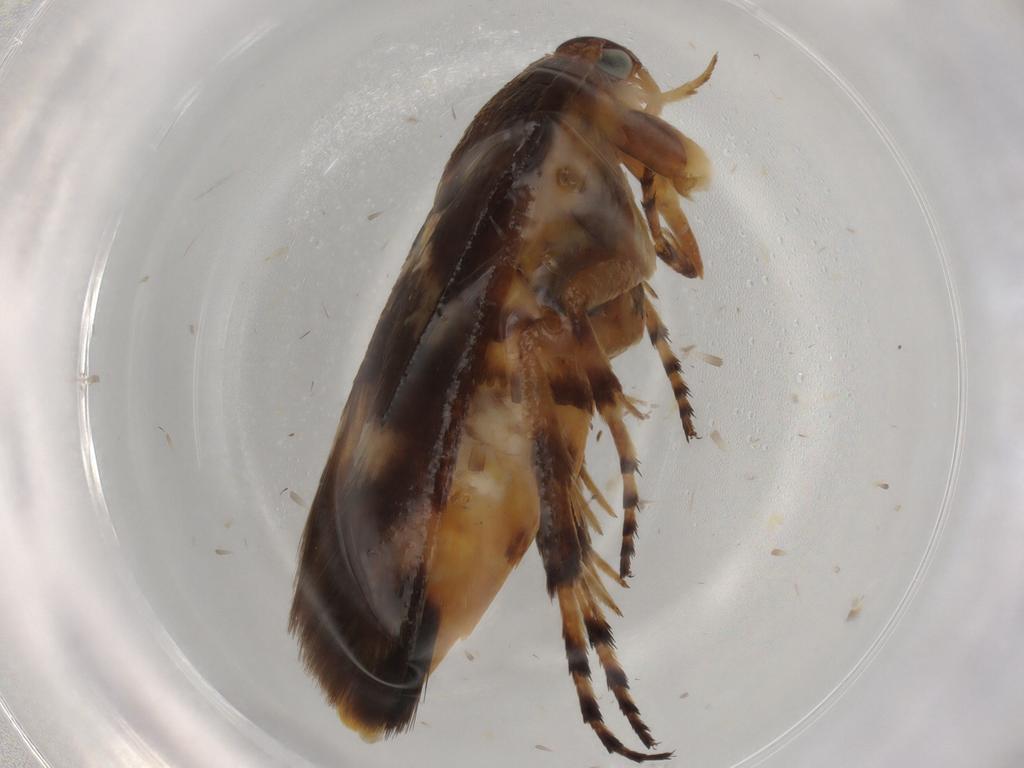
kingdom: Animalia
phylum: Arthropoda
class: Insecta
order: Lepidoptera
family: Scythrididae
